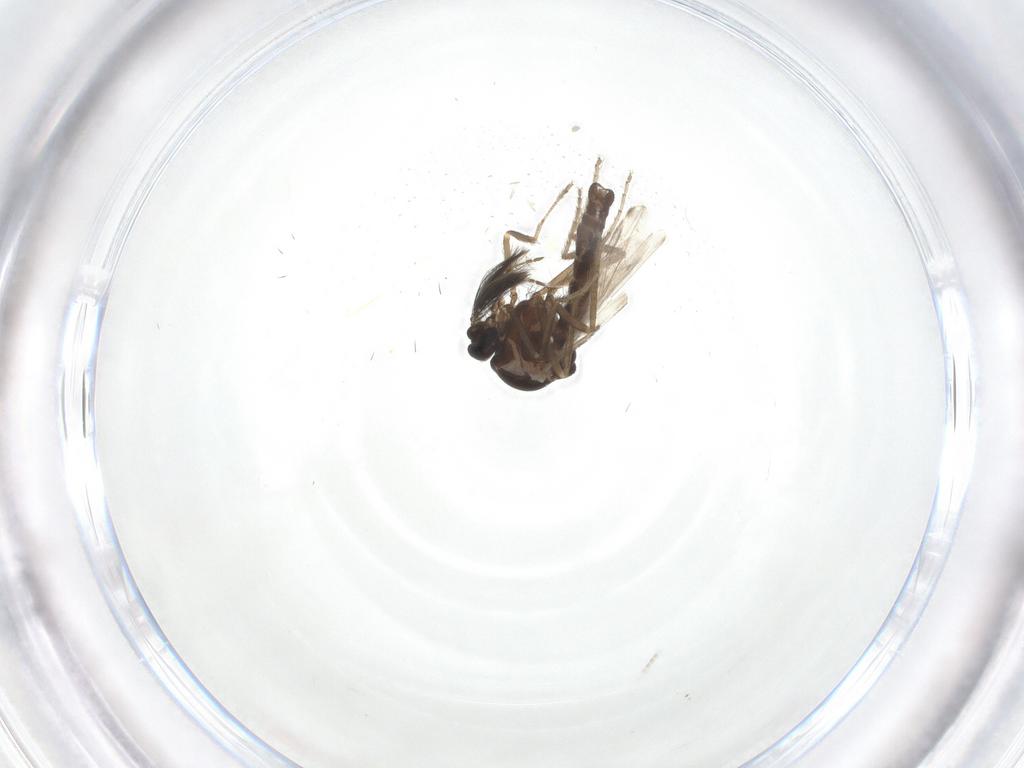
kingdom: Animalia
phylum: Arthropoda
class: Insecta
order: Diptera
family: Ceratopogonidae
